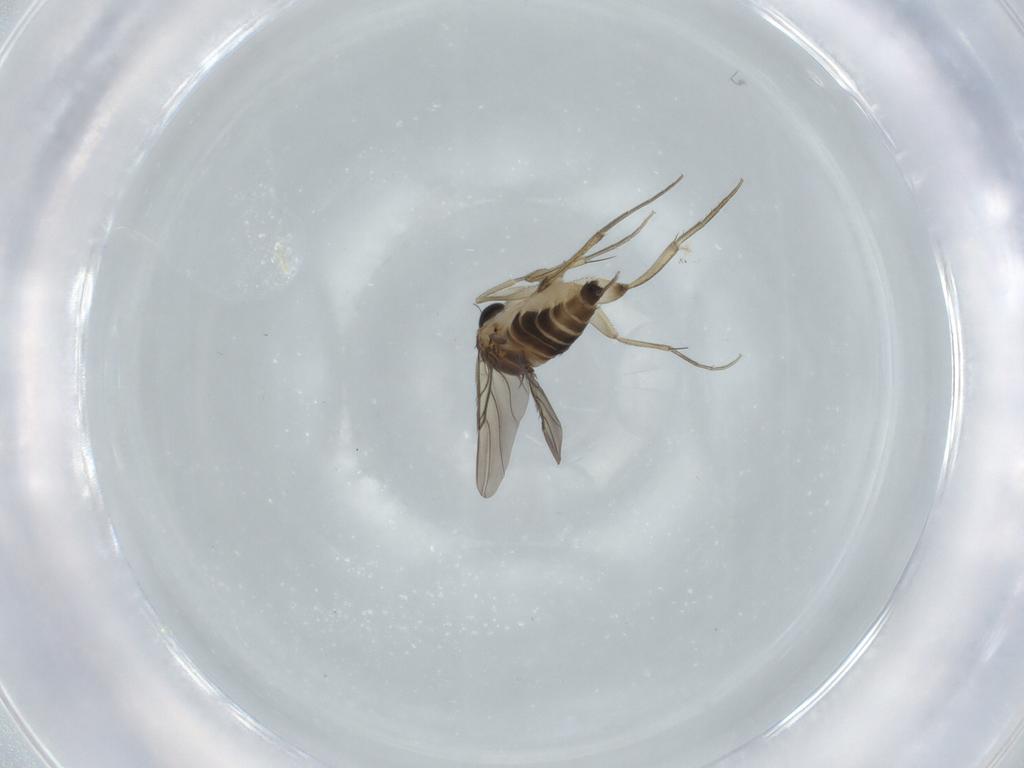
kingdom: Animalia
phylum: Arthropoda
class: Insecta
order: Diptera
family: Phoridae
